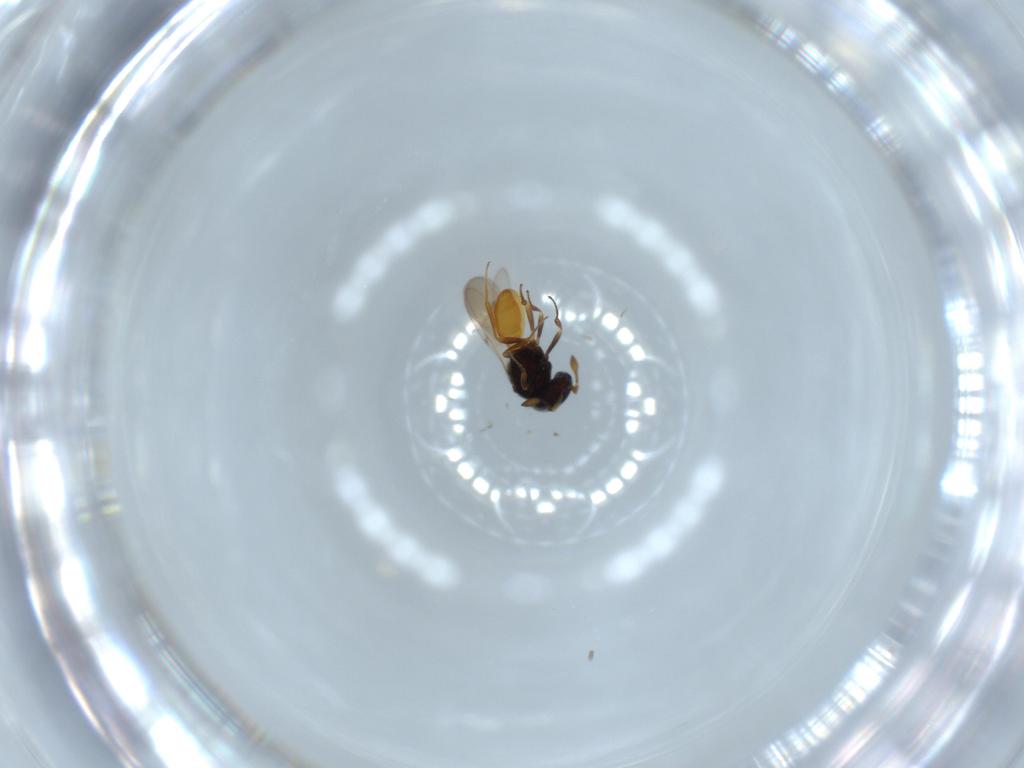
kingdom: Animalia
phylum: Arthropoda
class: Insecta
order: Hymenoptera
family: Scelionidae
